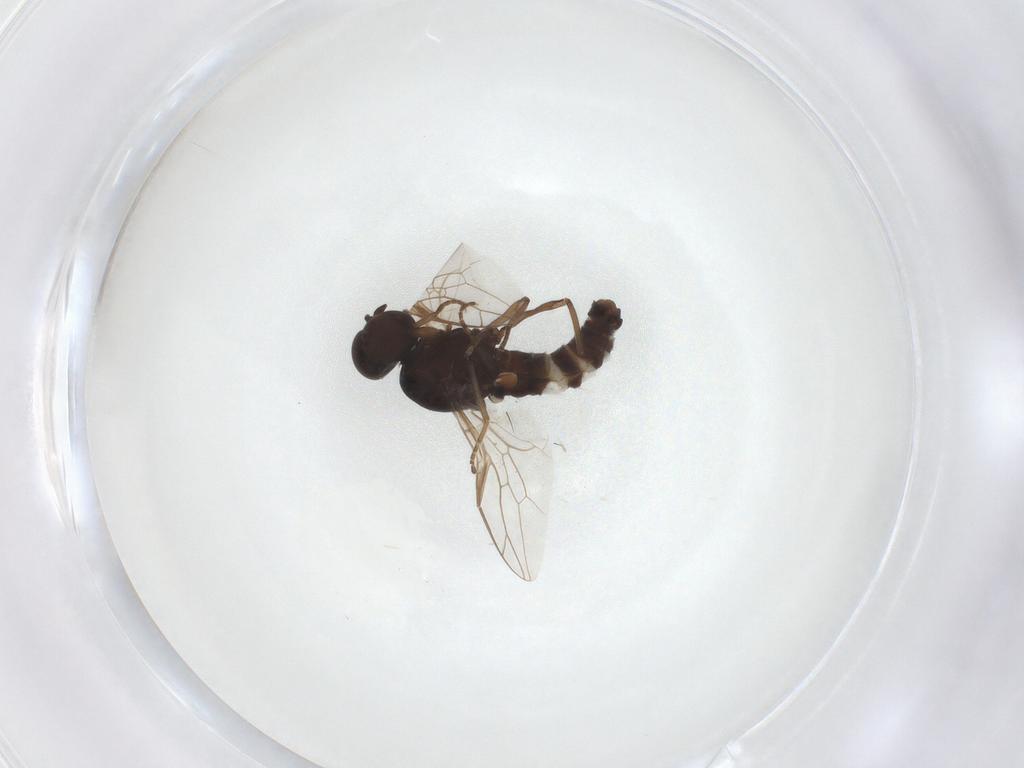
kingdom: Animalia
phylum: Arthropoda
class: Insecta
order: Diptera
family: Scenopinidae
